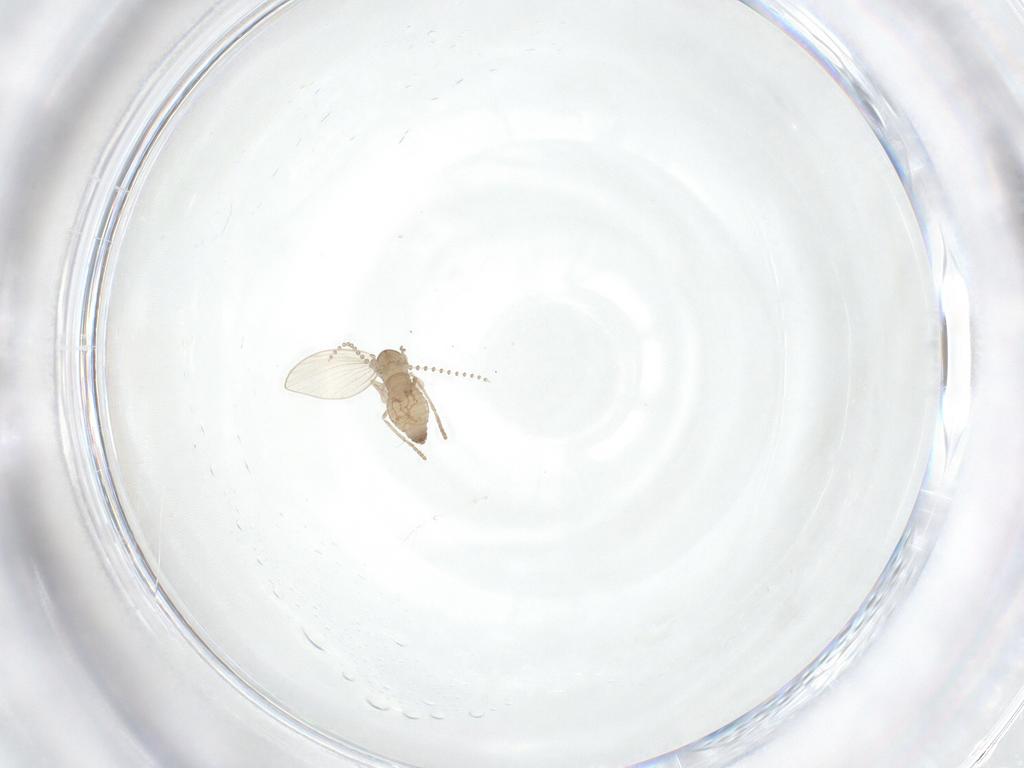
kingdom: Animalia
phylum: Arthropoda
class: Insecta
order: Diptera
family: Cecidomyiidae
